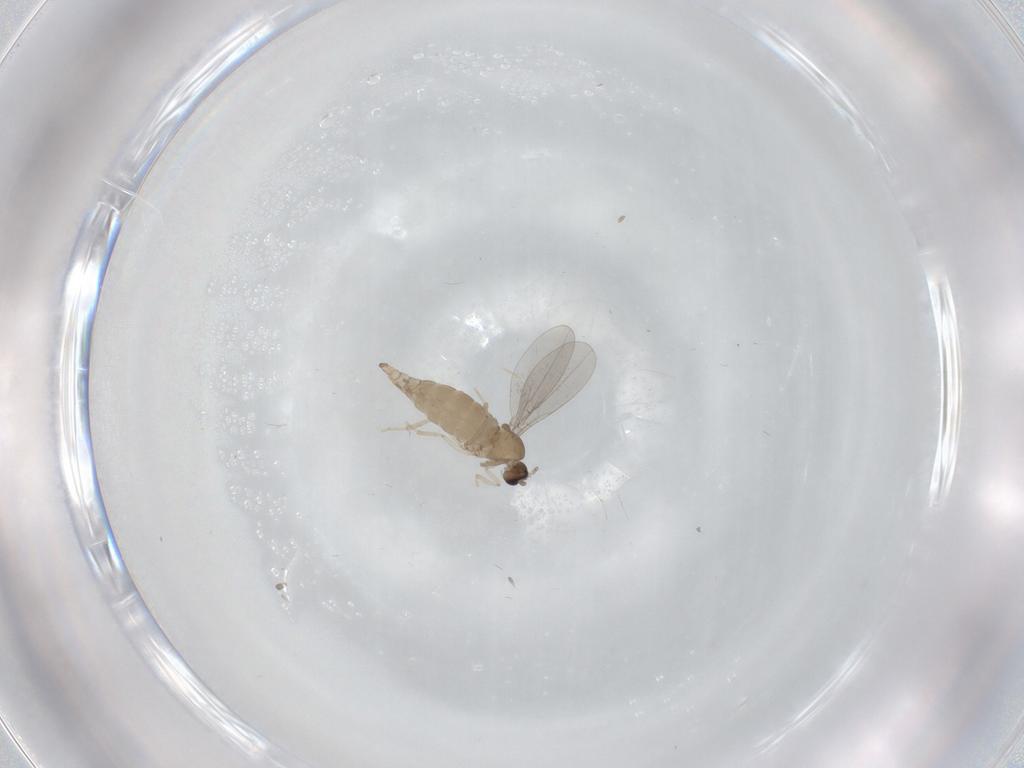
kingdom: Animalia
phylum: Arthropoda
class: Insecta
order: Diptera
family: Cecidomyiidae
